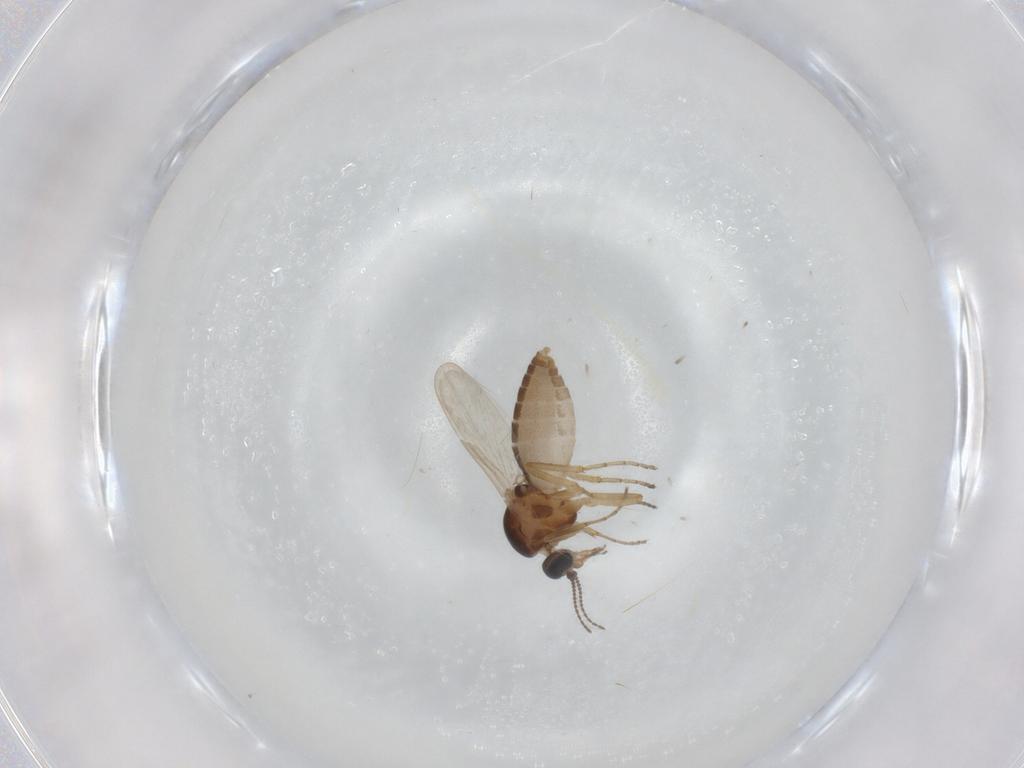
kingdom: Animalia
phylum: Arthropoda
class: Insecta
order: Diptera
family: Ceratopogonidae
